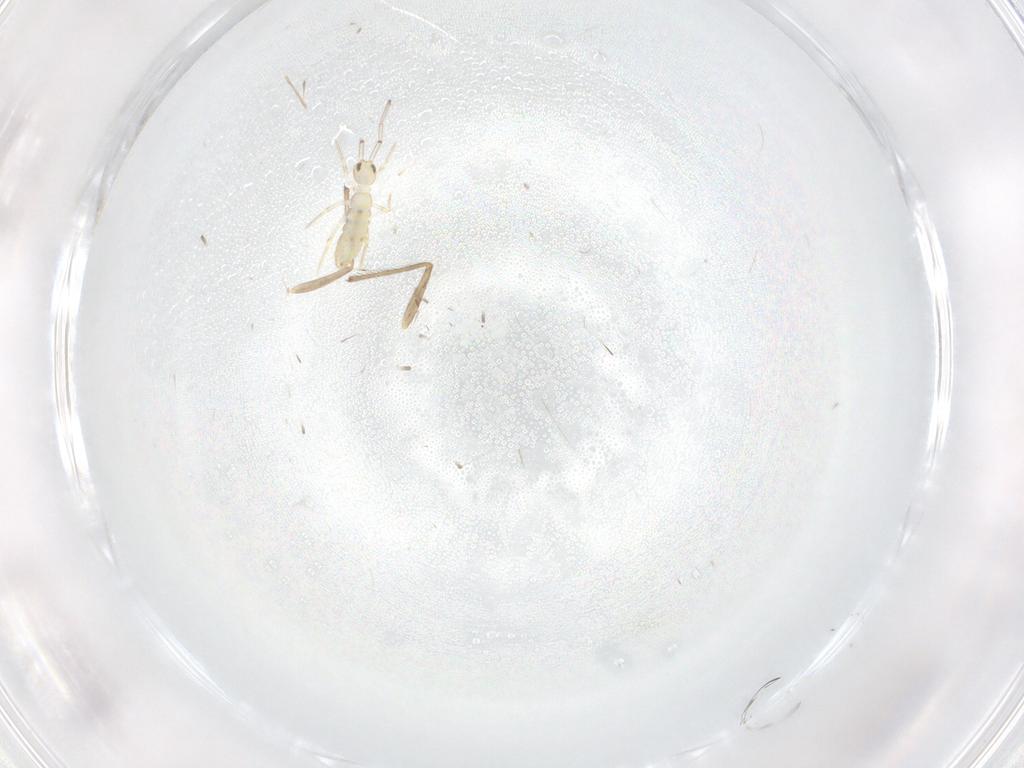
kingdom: Animalia
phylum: Arthropoda
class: Insecta
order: Diptera
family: Chironomidae
